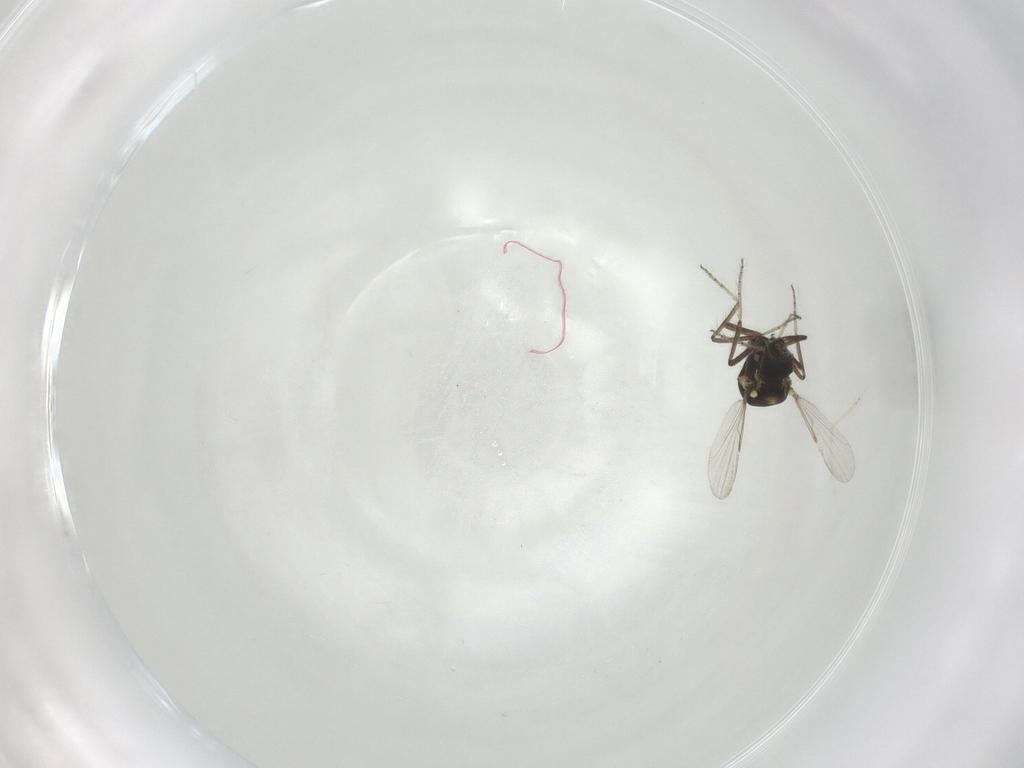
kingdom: Animalia
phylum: Arthropoda
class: Insecta
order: Diptera
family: Ceratopogonidae
